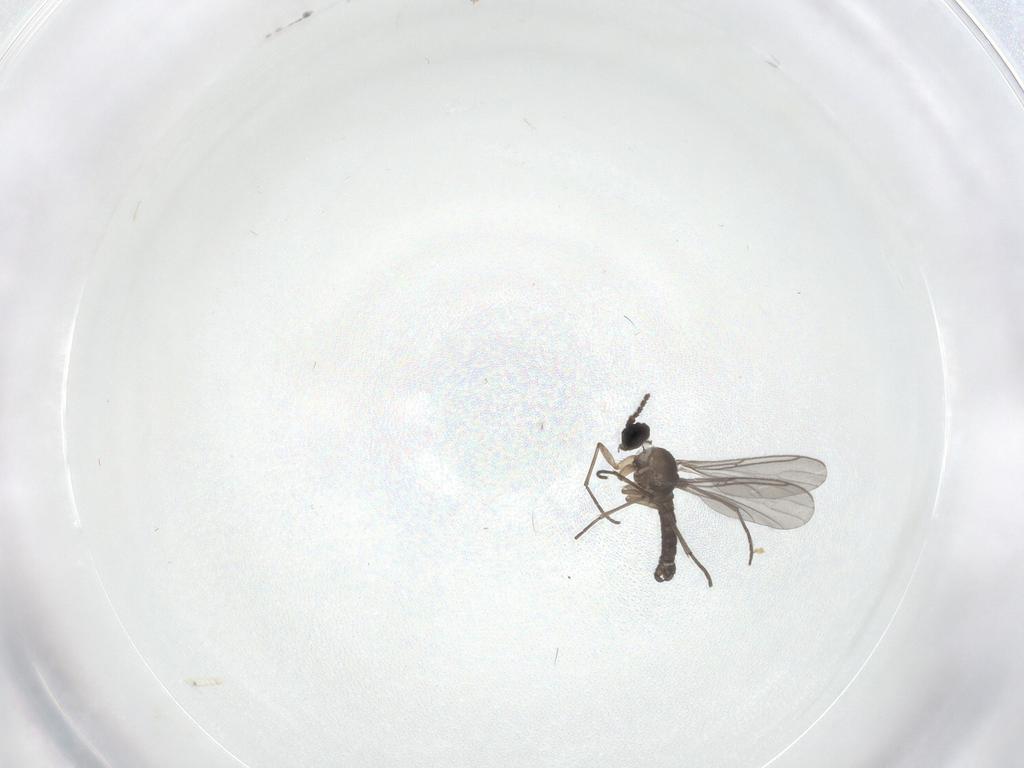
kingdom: Animalia
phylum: Arthropoda
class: Insecta
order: Diptera
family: Sciaridae
